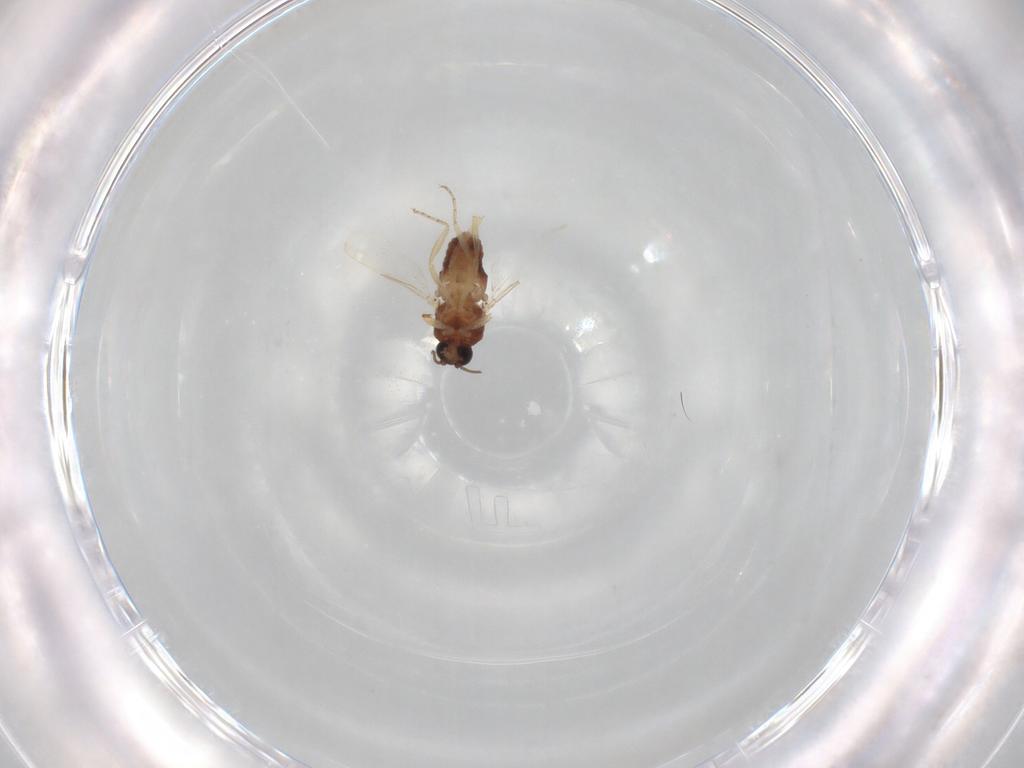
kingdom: Animalia
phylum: Arthropoda
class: Insecta
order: Diptera
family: Ceratopogonidae
